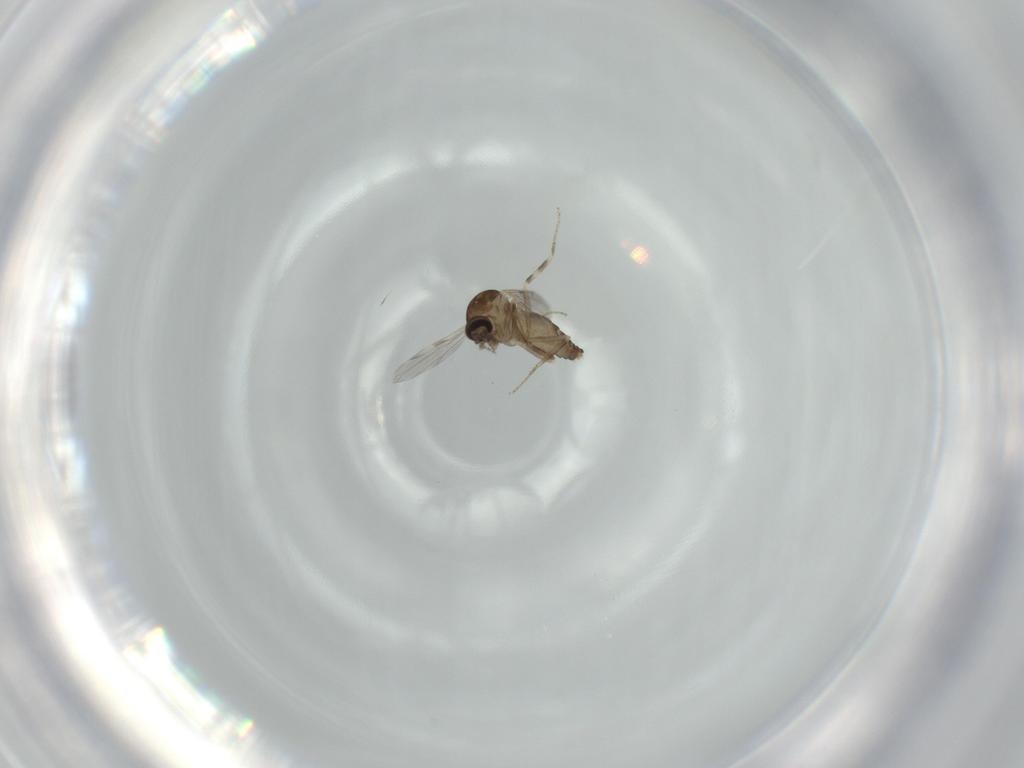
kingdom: Animalia
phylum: Arthropoda
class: Insecta
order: Diptera
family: Ceratopogonidae
